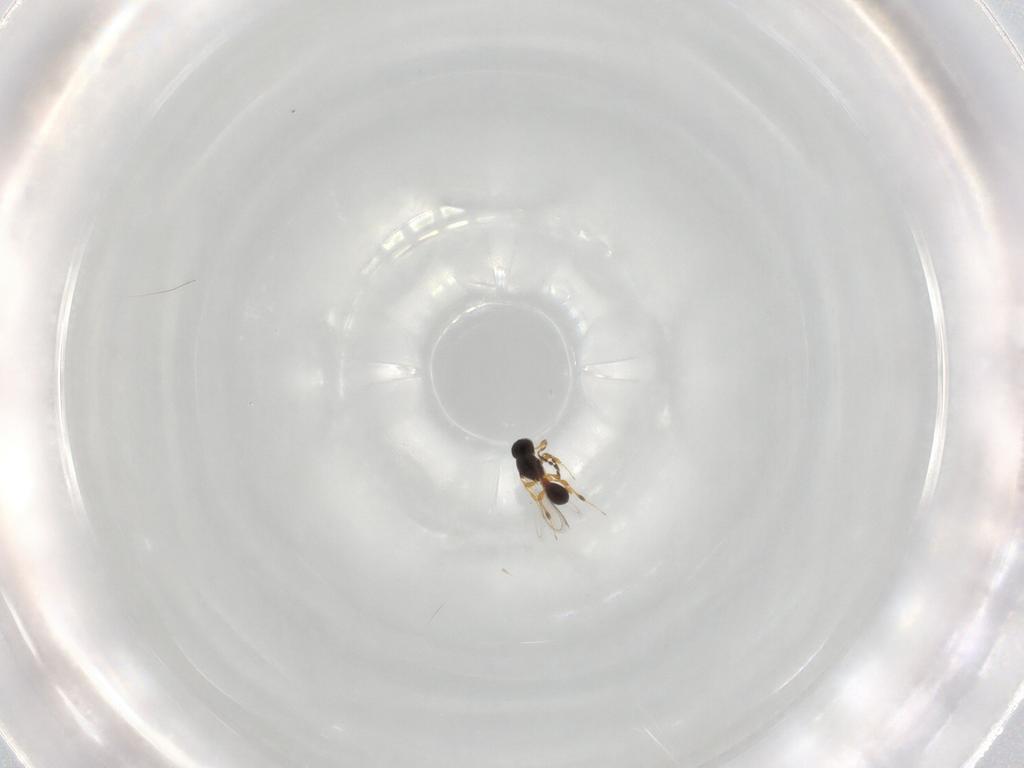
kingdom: Animalia
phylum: Arthropoda
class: Insecta
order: Hymenoptera
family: Platygastridae
